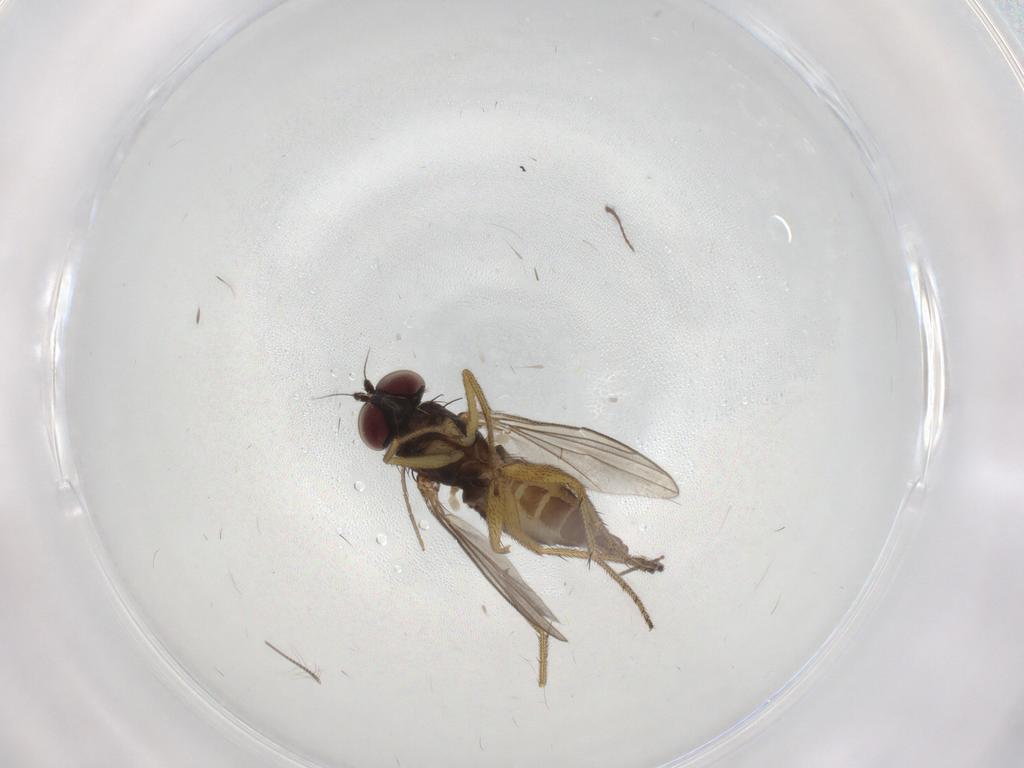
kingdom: Animalia
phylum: Arthropoda
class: Insecta
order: Diptera
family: Dolichopodidae
